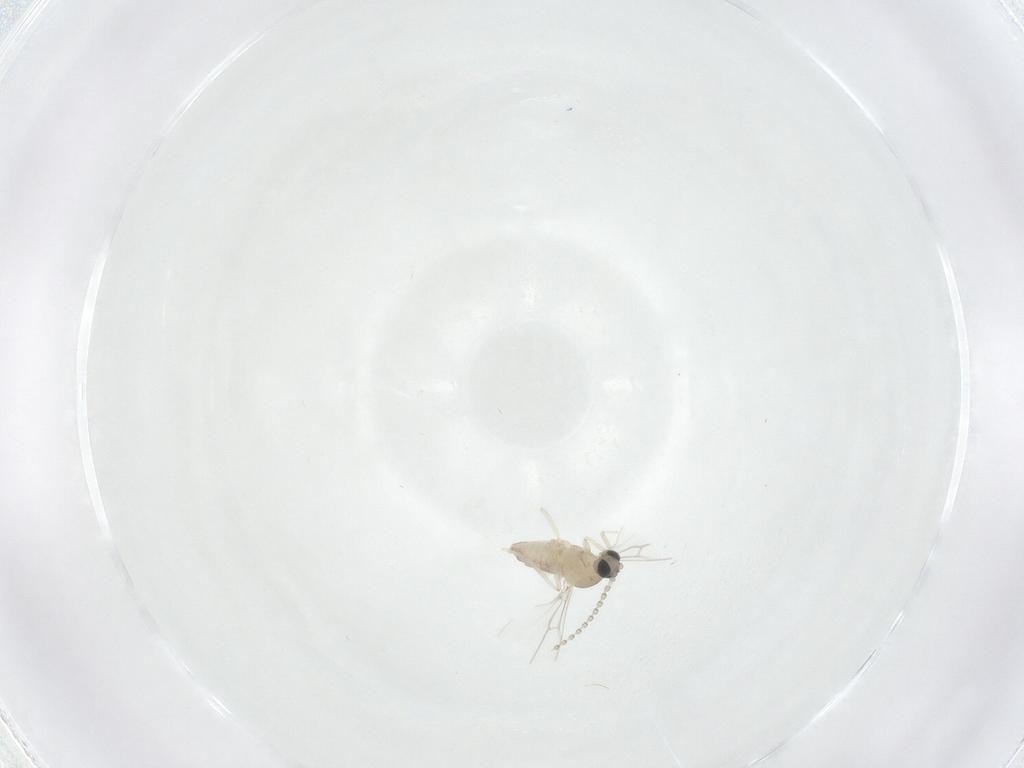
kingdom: Animalia
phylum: Arthropoda
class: Insecta
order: Diptera
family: Cecidomyiidae
